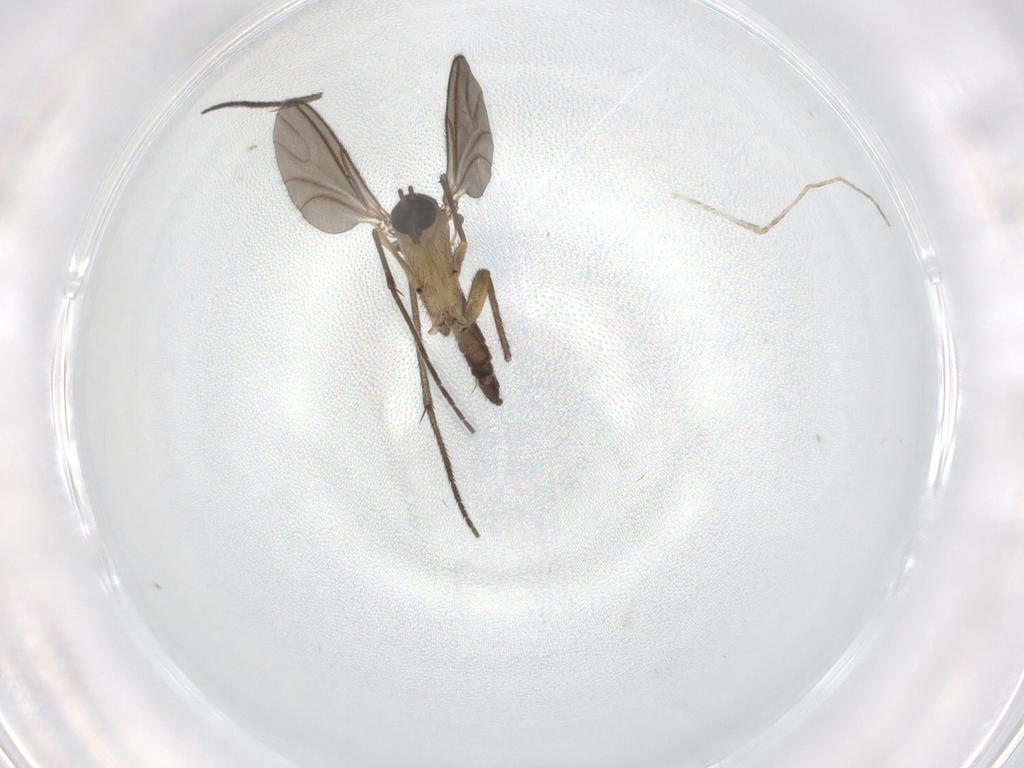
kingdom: Animalia
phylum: Arthropoda
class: Insecta
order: Diptera
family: Sciaridae
